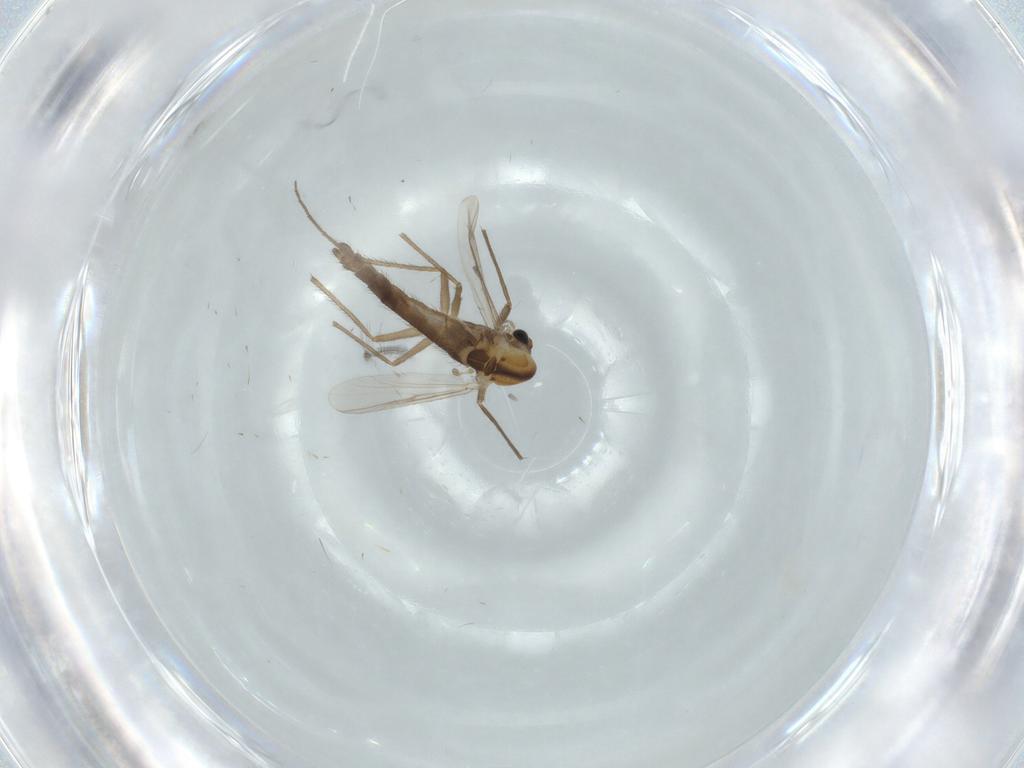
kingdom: Animalia
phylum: Arthropoda
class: Insecta
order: Diptera
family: Chironomidae
